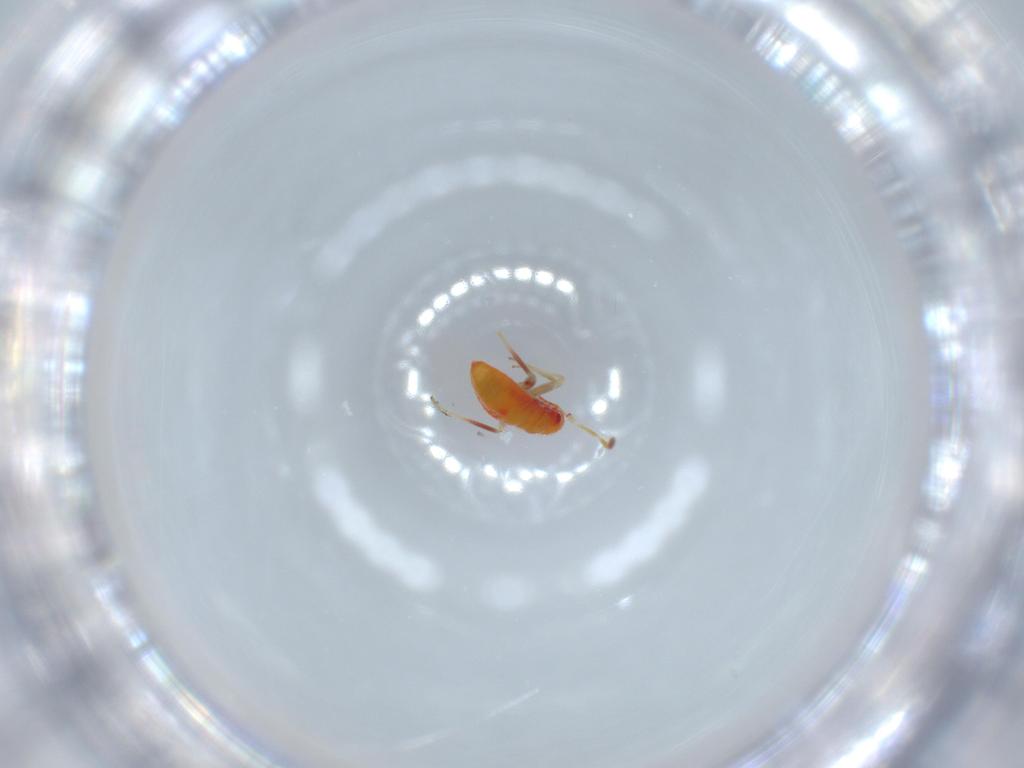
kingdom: Animalia
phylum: Arthropoda
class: Insecta
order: Hemiptera
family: Miridae
